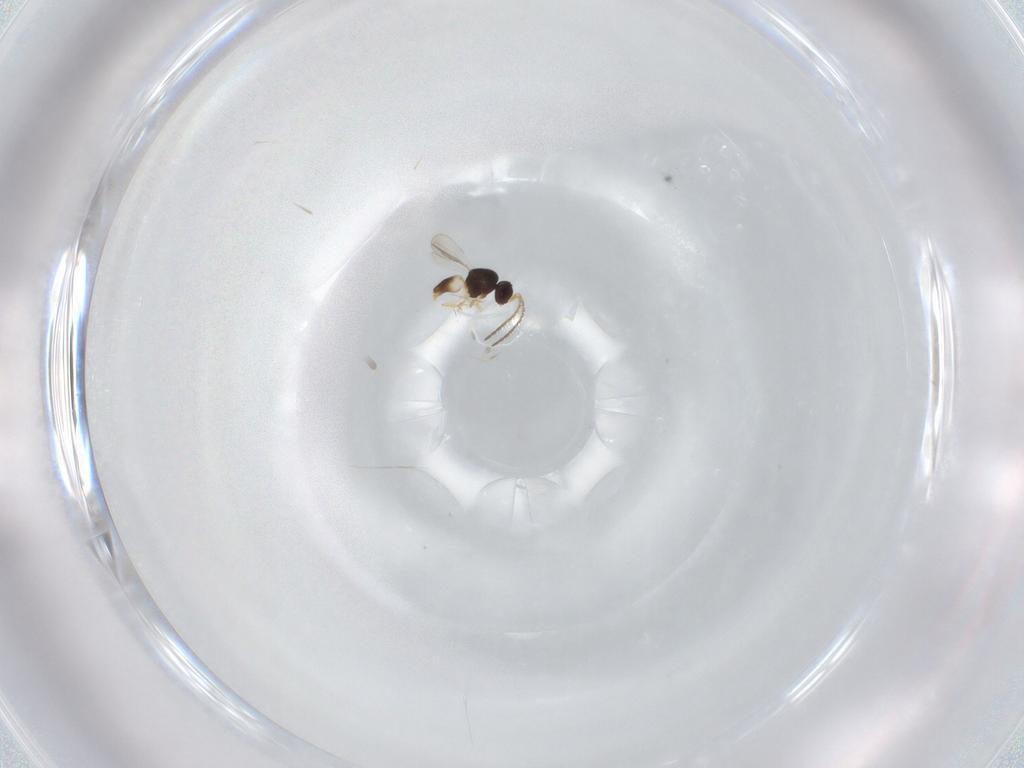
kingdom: Animalia
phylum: Arthropoda
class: Insecta
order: Hymenoptera
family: Ceraphronidae
